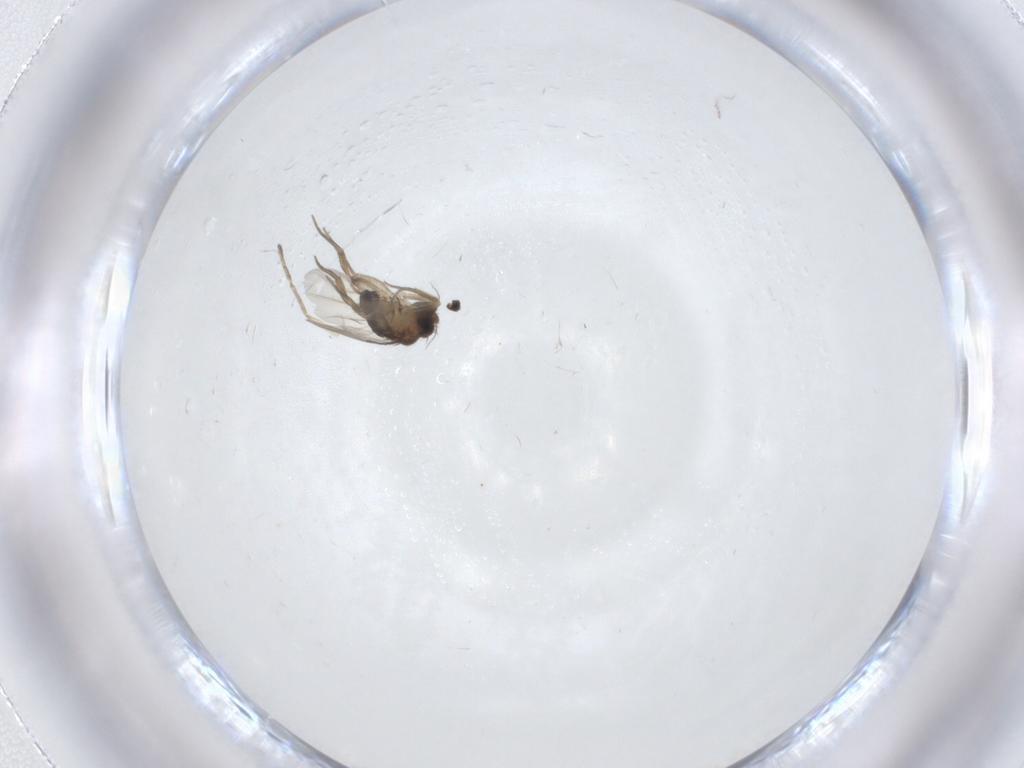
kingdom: Animalia
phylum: Arthropoda
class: Insecta
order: Diptera
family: Phoridae
